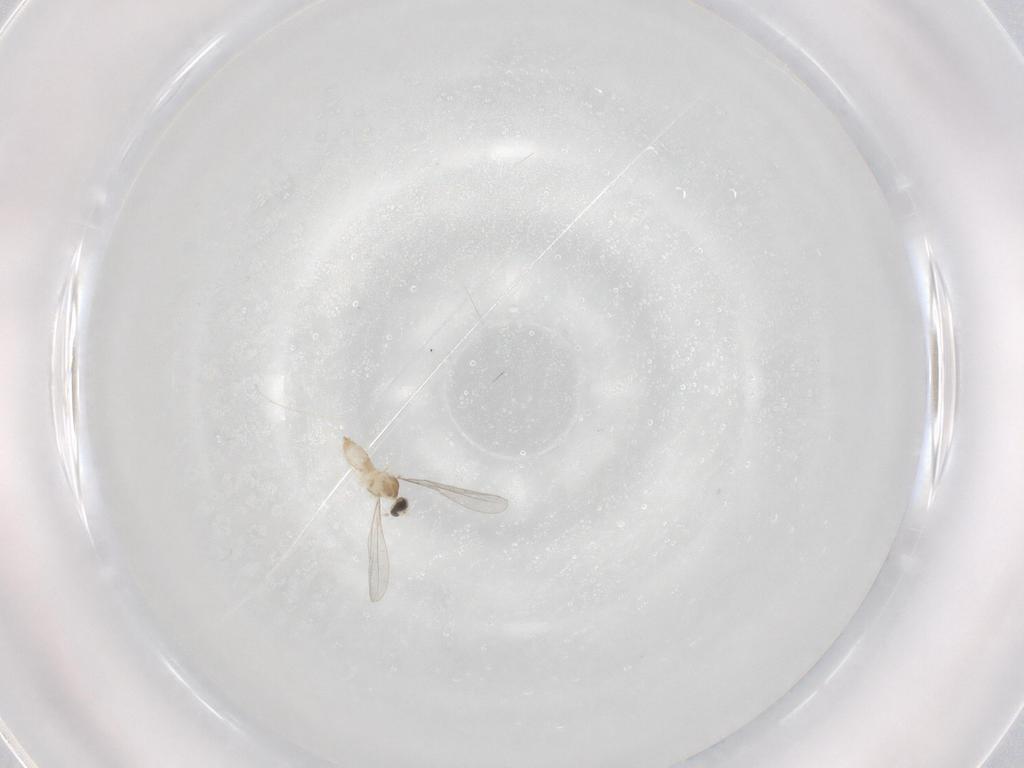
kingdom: Animalia
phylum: Arthropoda
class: Insecta
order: Diptera
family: Cecidomyiidae
